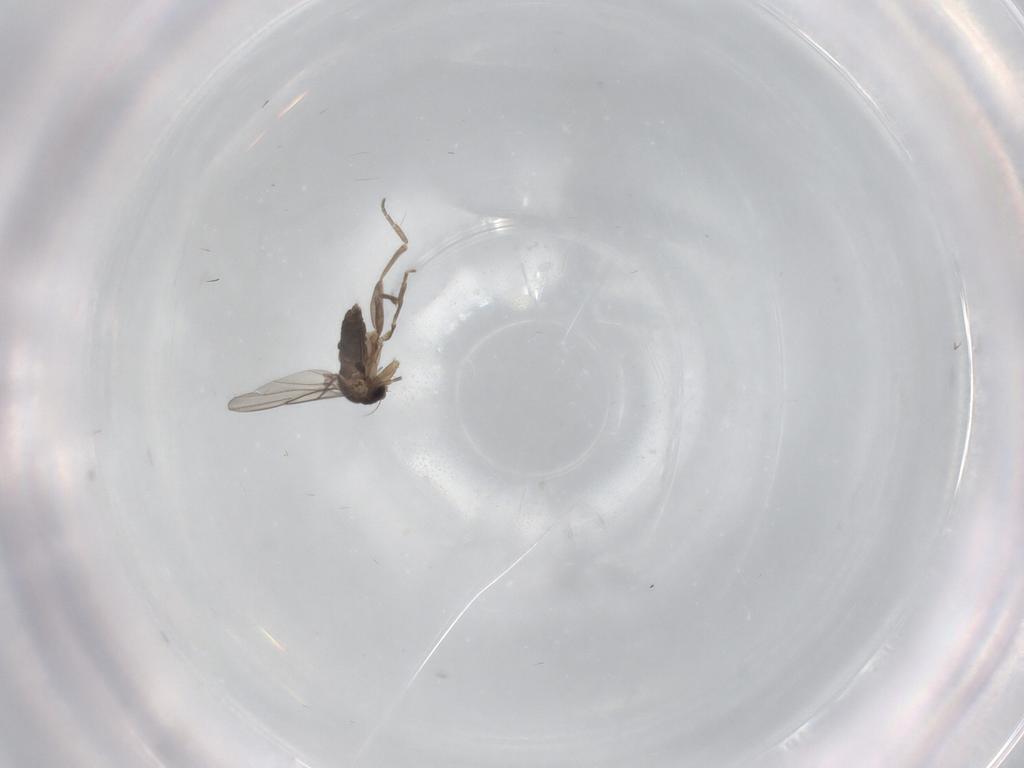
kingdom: Animalia
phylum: Arthropoda
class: Insecta
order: Diptera
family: Phoridae
